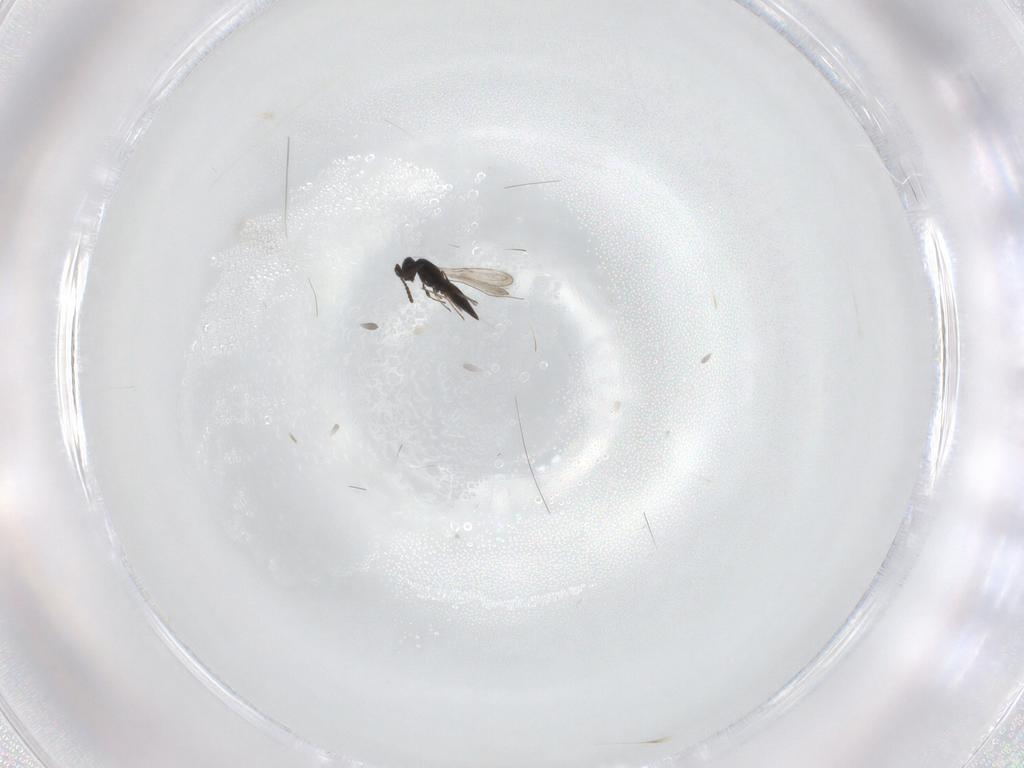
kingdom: Animalia
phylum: Arthropoda
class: Insecta
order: Hymenoptera
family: Scelionidae
